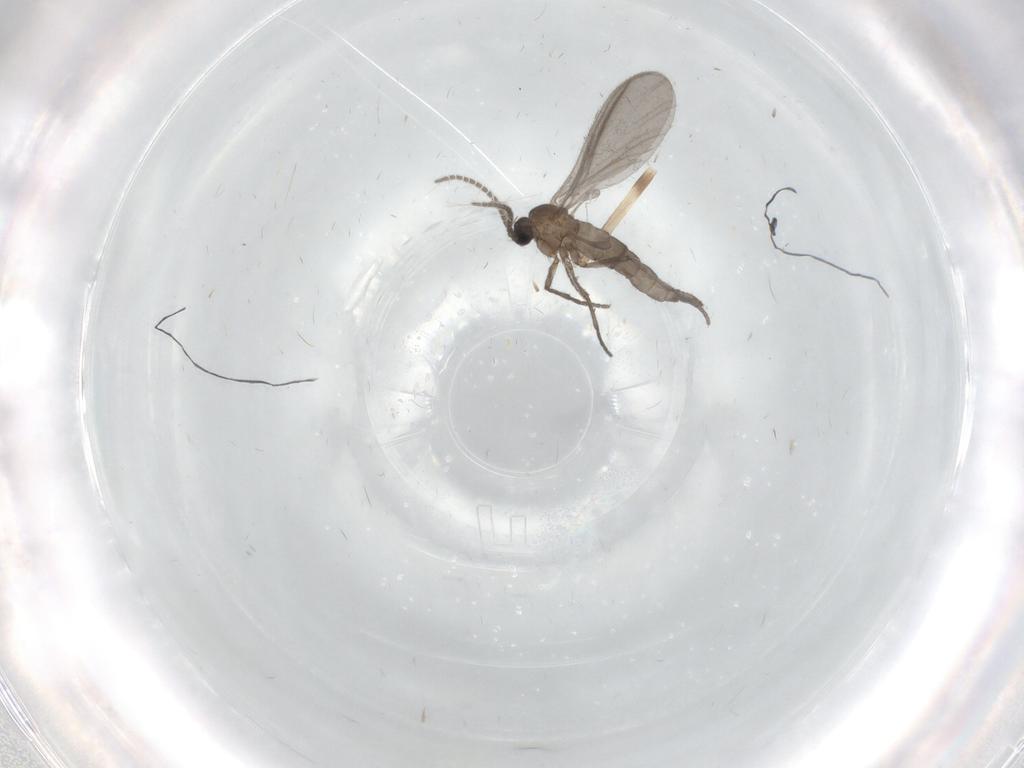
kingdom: Animalia
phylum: Arthropoda
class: Insecta
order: Diptera
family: Sciaridae
